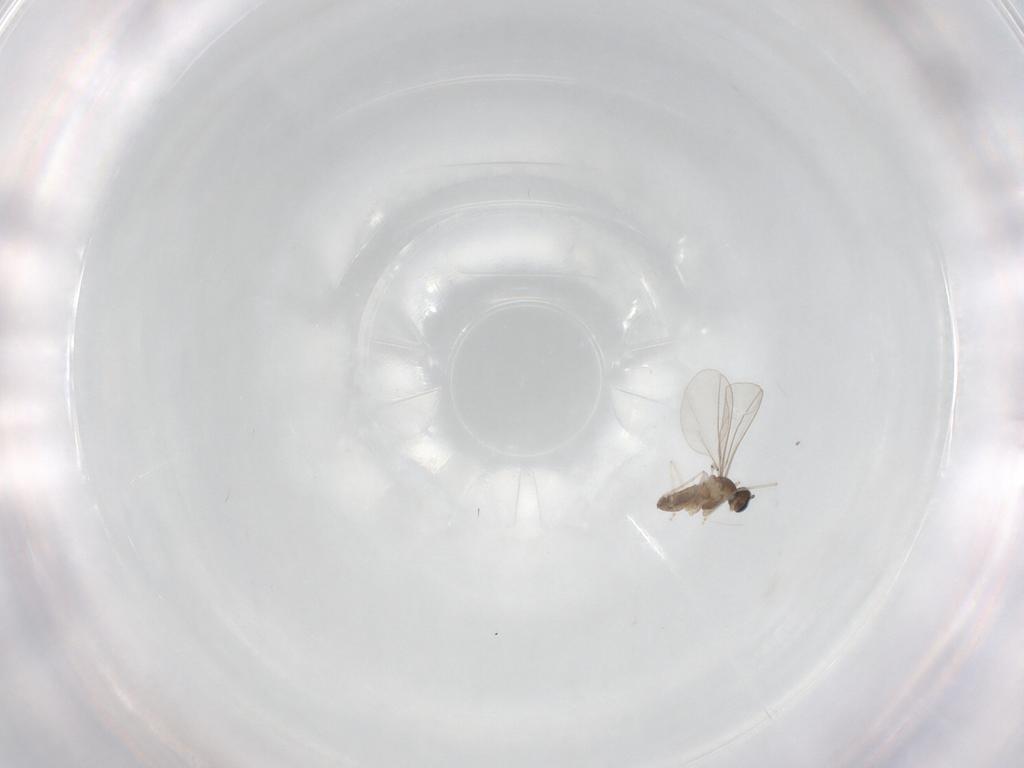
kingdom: Animalia
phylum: Arthropoda
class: Insecta
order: Diptera
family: Cecidomyiidae
